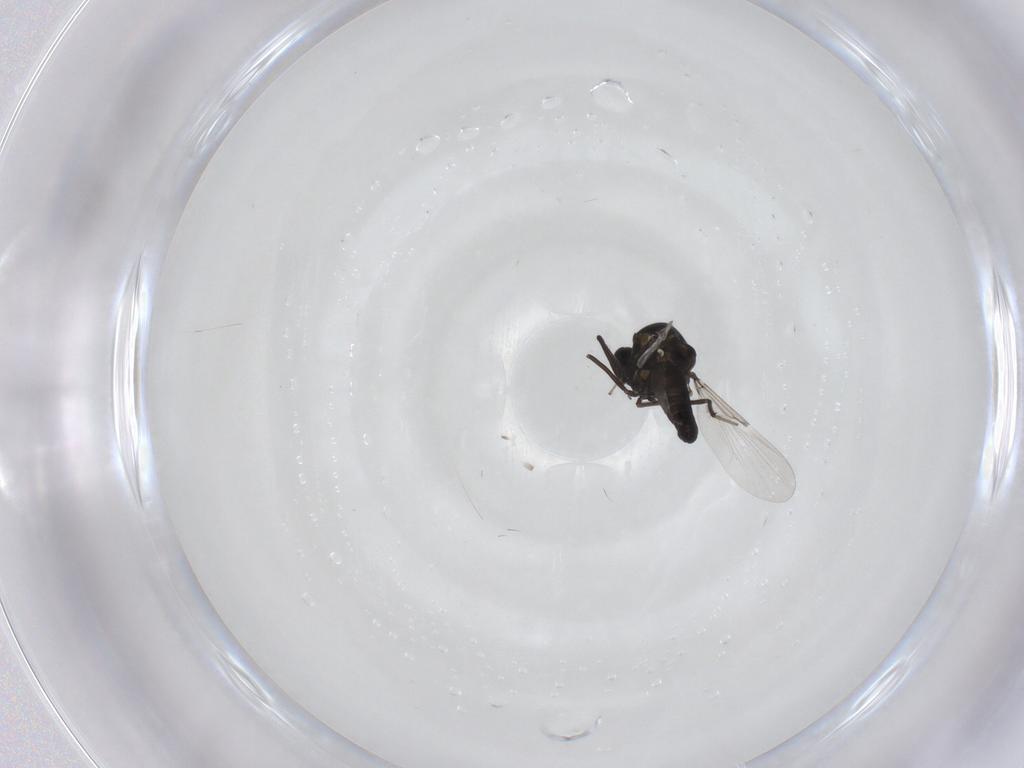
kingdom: Animalia
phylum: Arthropoda
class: Insecta
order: Diptera
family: Ceratopogonidae
